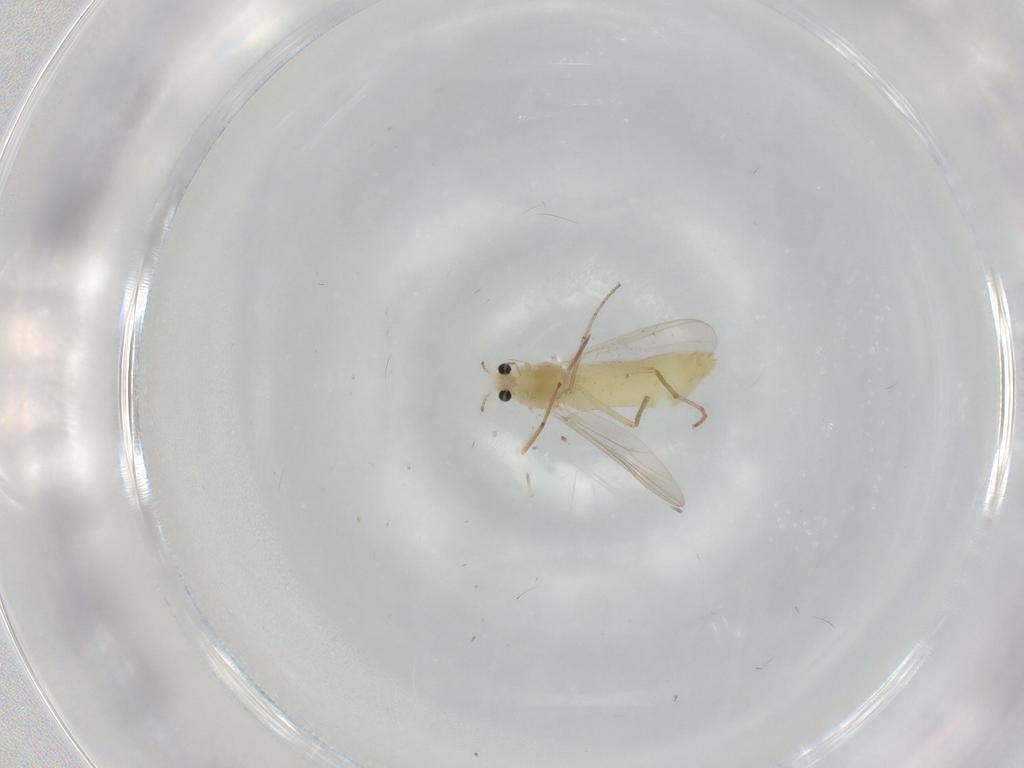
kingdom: Animalia
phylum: Arthropoda
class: Insecta
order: Diptera
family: Chironomidae
